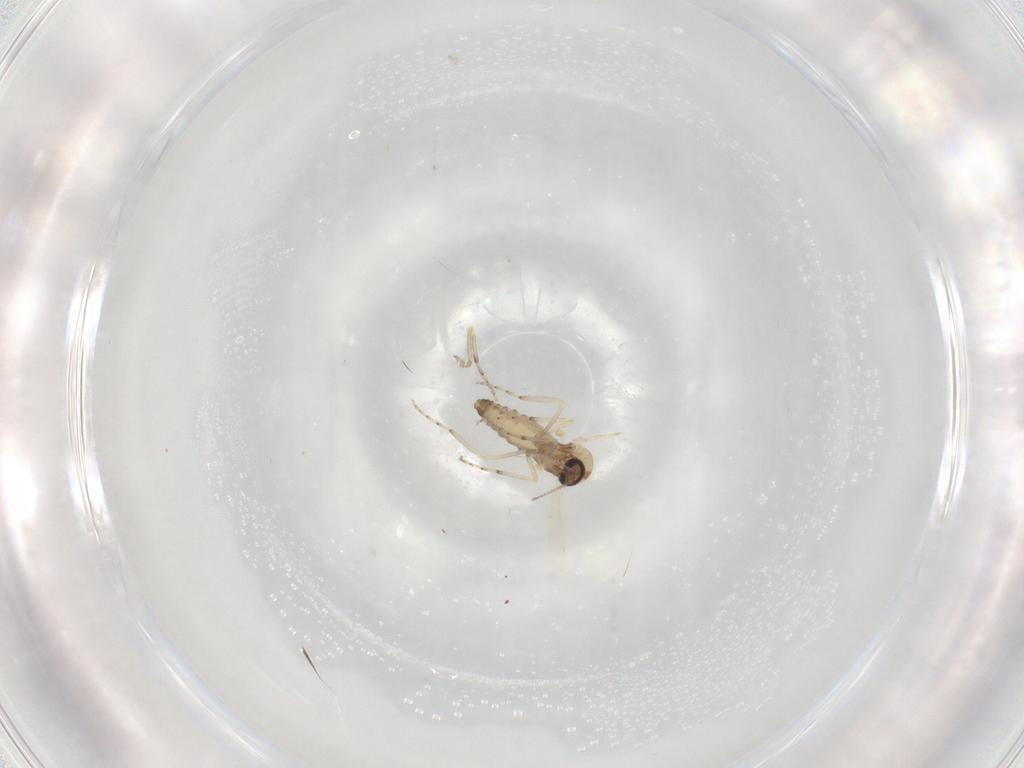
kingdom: Animalia
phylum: Arthropoda
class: Insecta
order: Diptera
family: Ceratopogonidae
